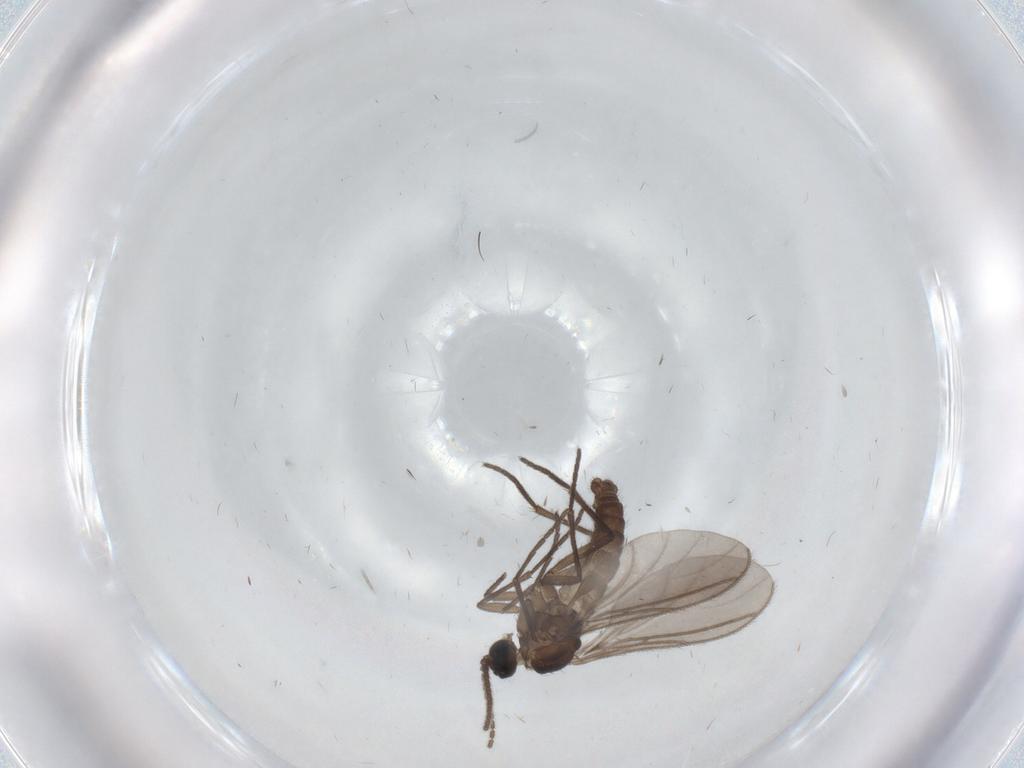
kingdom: Animalia
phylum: Arthropoda
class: Insecta
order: Diptera
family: Sciaridae
